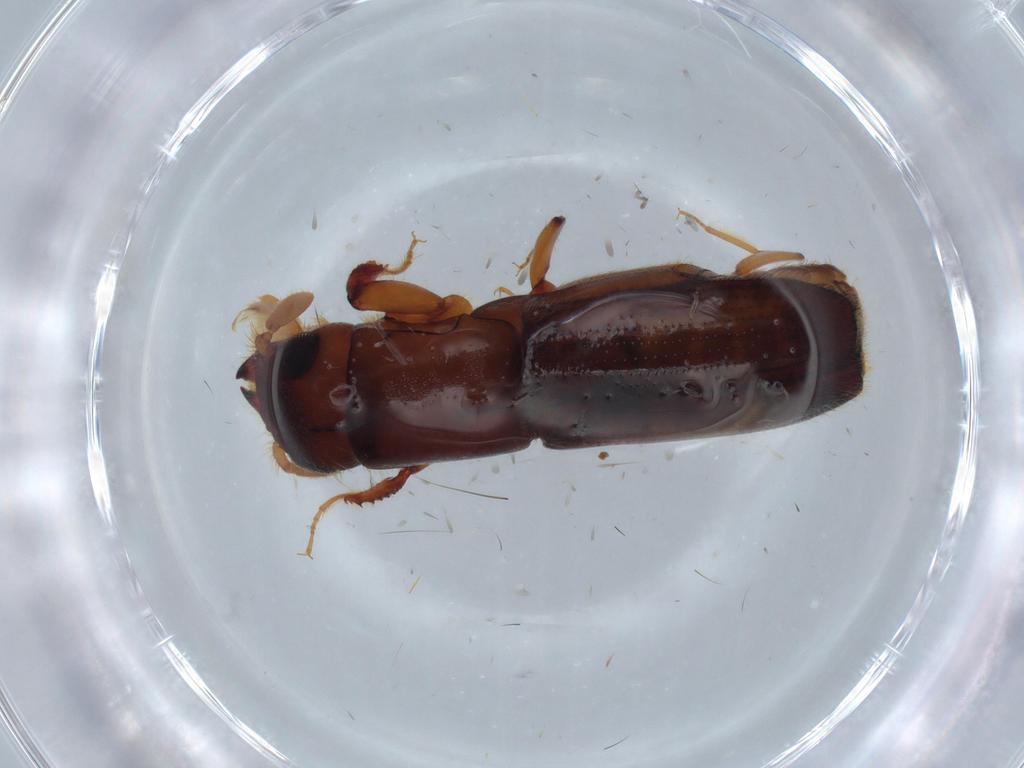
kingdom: Animalia
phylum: Arthropoda
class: Insecta
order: Coleoptera
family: Curculionidae
